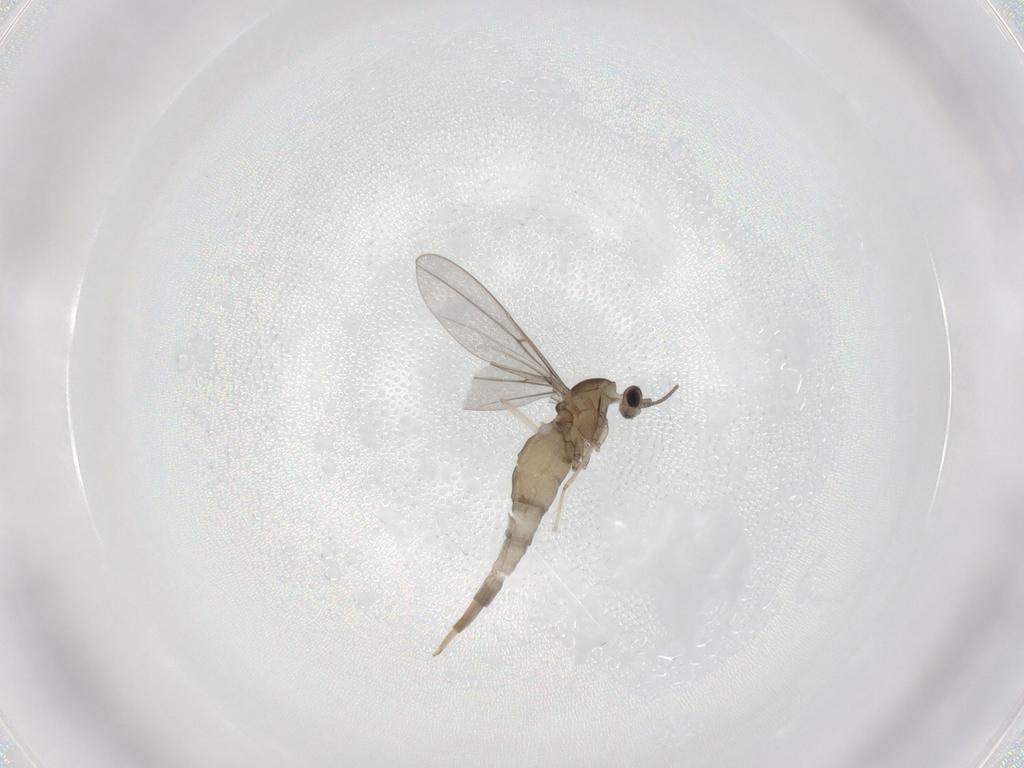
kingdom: Animalia
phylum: Arthropoda
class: Insecta
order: Diptera
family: Cecidomyiidae
